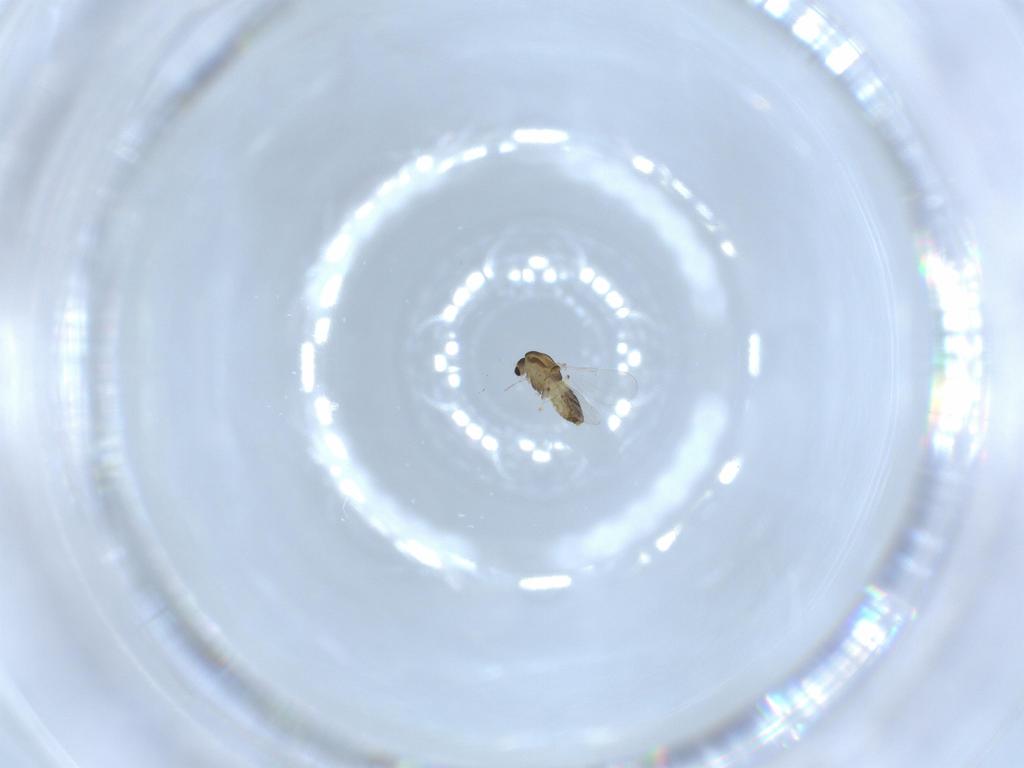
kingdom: Animalia
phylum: Arthropoda
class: Insecta
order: Diptera
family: Chironomidae
